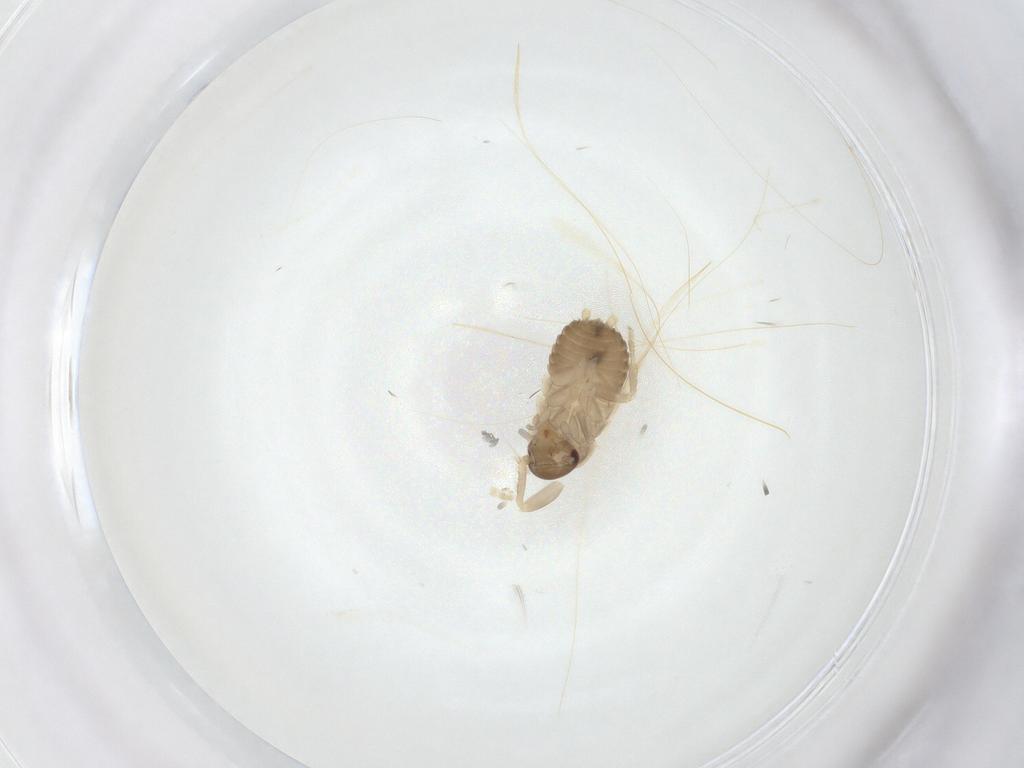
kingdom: Animalia
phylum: Arthropoda
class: Insecta
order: Blattodea
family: Ectobiidae
